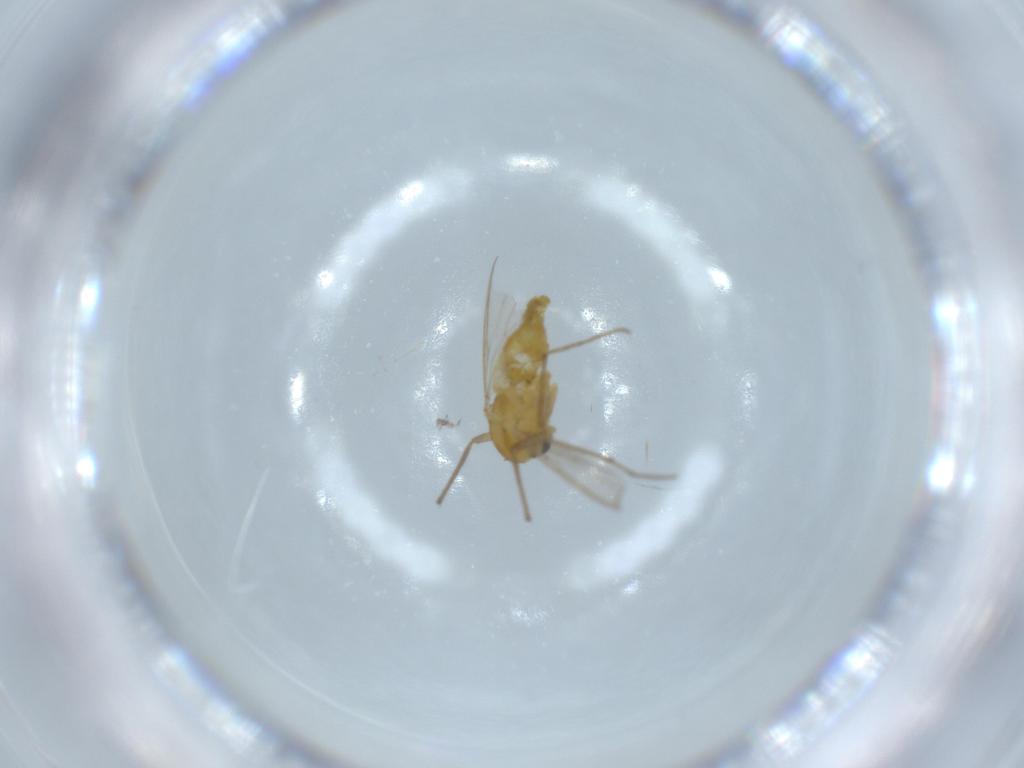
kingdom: Animalia
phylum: Arthropoda
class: Insecta
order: Diptera
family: Chironomidae
